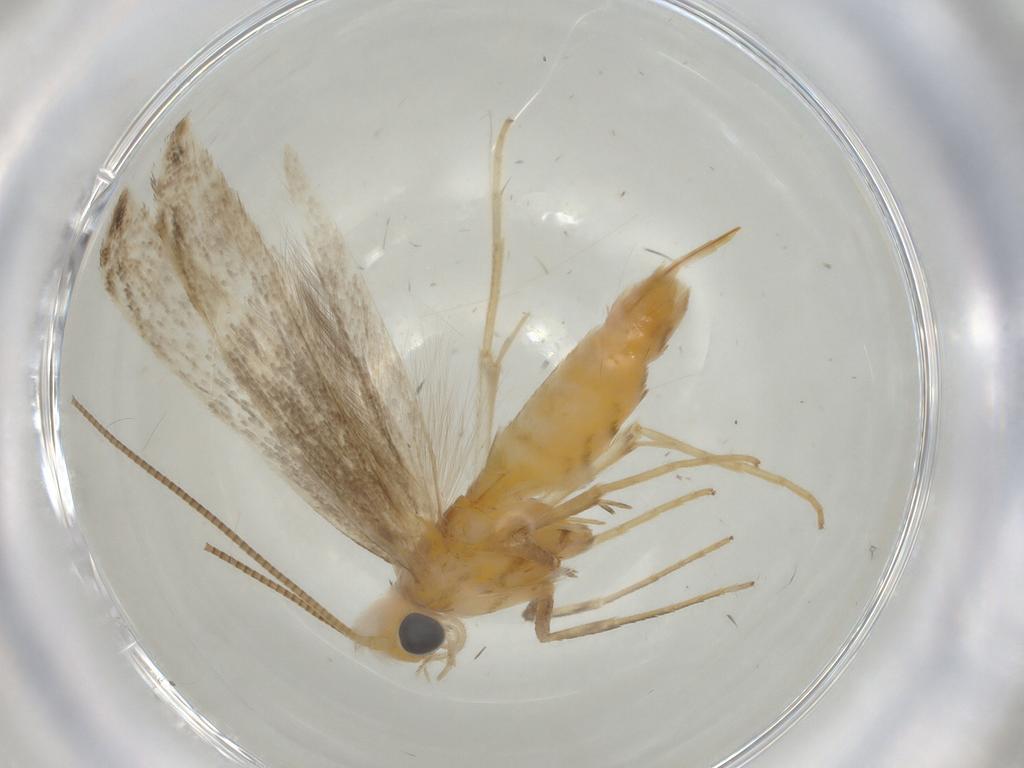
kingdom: Animalia
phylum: Arthropoda
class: Insecta
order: Lepidoptera
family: Gracillariidae
